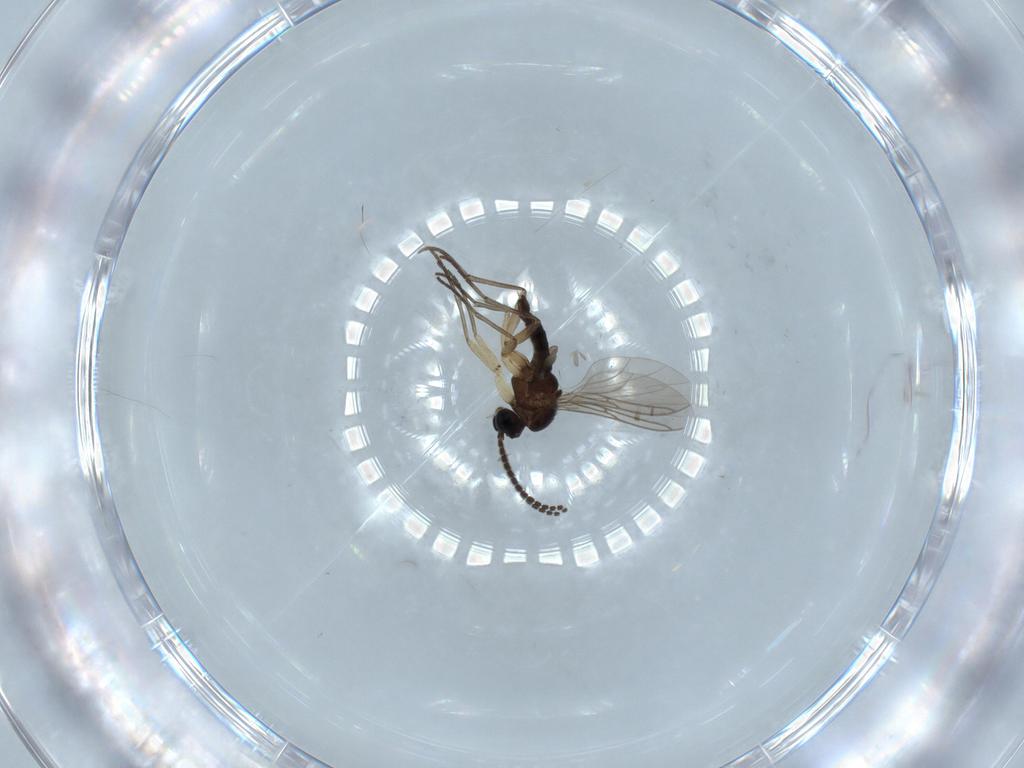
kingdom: Animalia
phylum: Arthropoda
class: Insecta
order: Diptera
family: Sciaridae
